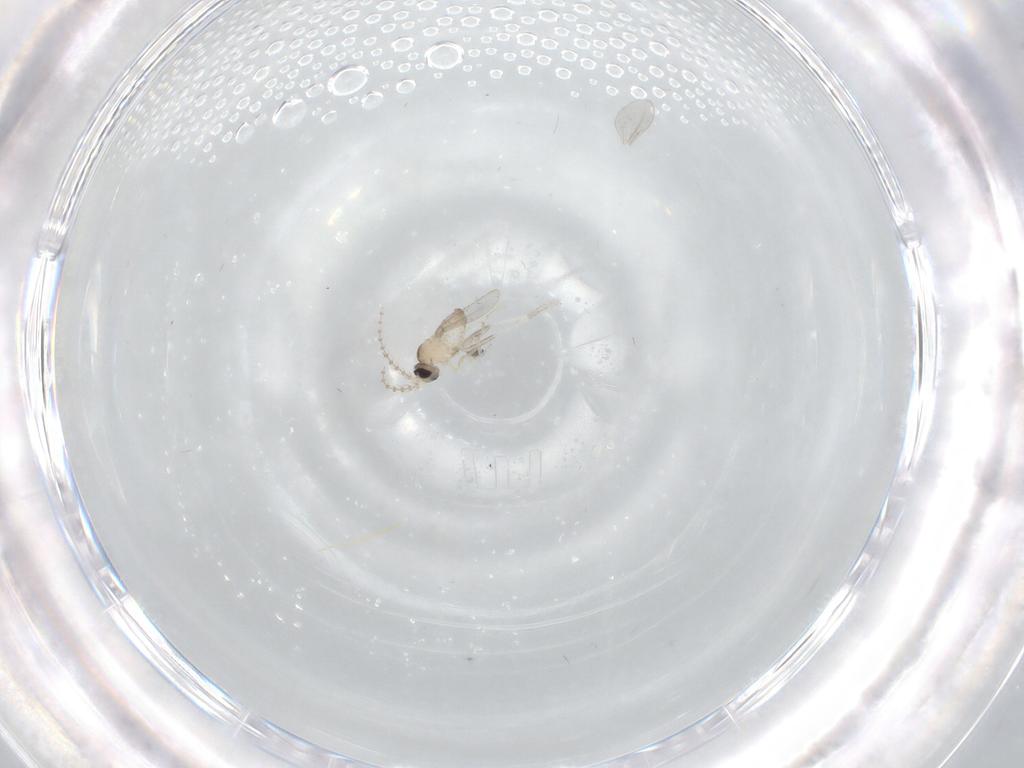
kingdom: Animalia
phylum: Arthropoda
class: Insecta
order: Diptera
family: Cecidomyiidae
